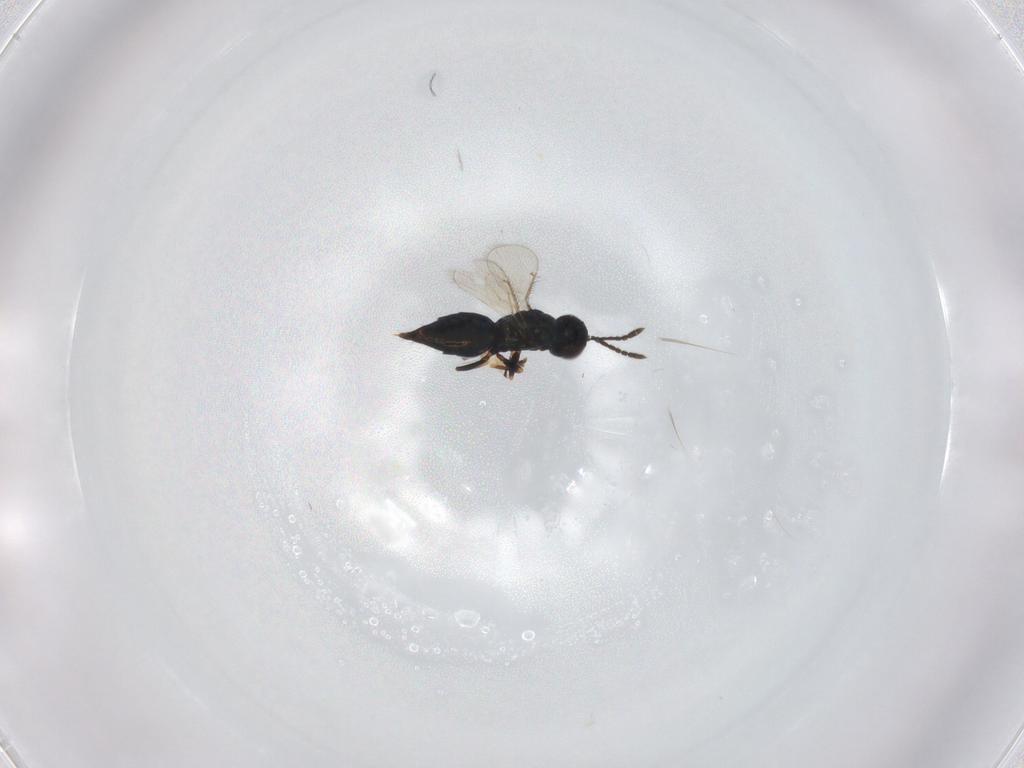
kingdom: Animalia
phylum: Arthropoda
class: Insecta
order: Hymenoptera
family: Eulophidae
